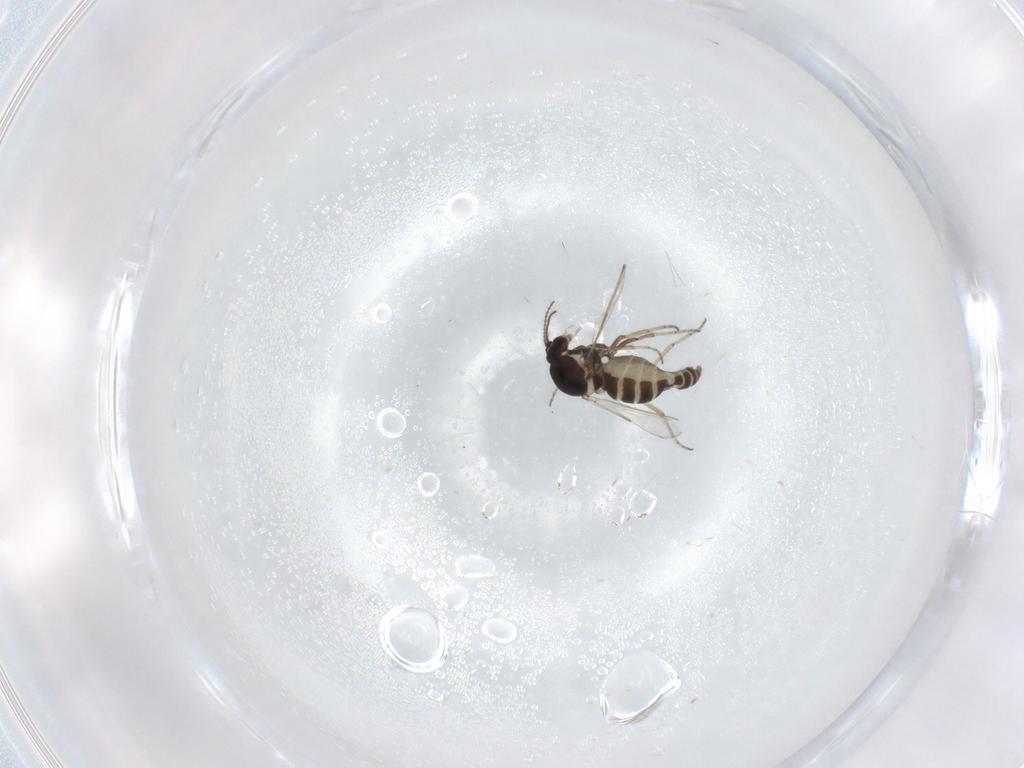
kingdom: Animalia
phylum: Arthropoda
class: Insecta
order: Diptera
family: Ceratopogonidae
